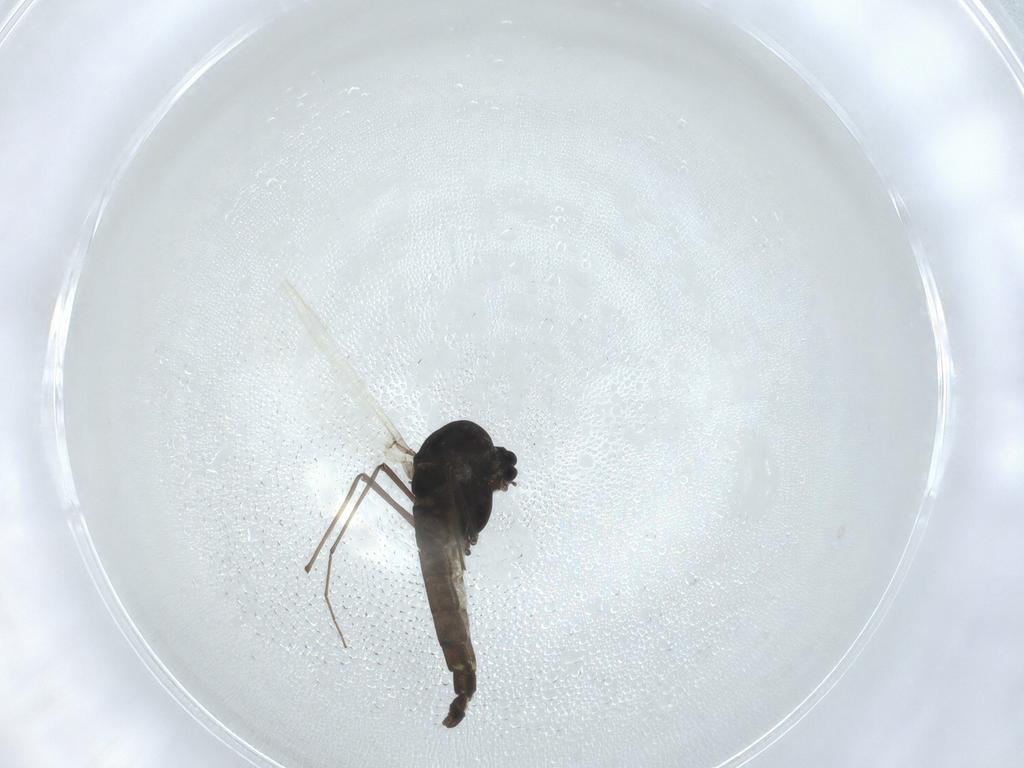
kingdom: Animalia
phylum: Arthropoda
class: Insecta
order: Diptera
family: Chironomidae
